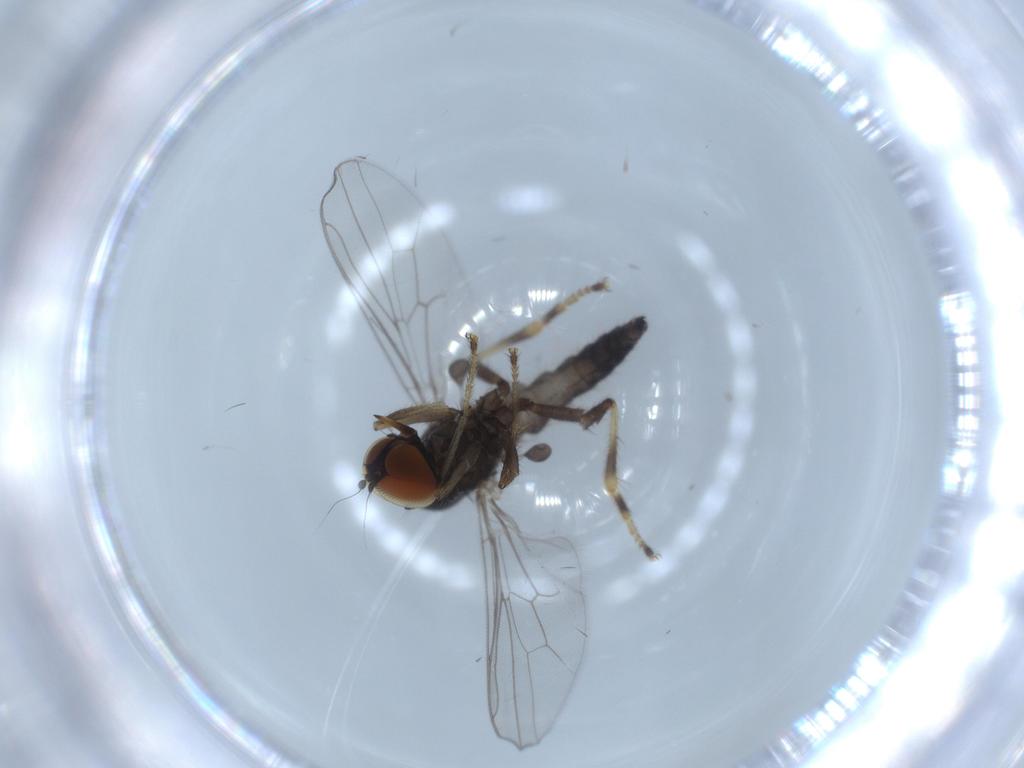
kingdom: Animalia
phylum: Arthropoda
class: Insecta
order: Diptera
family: Hybotidae
